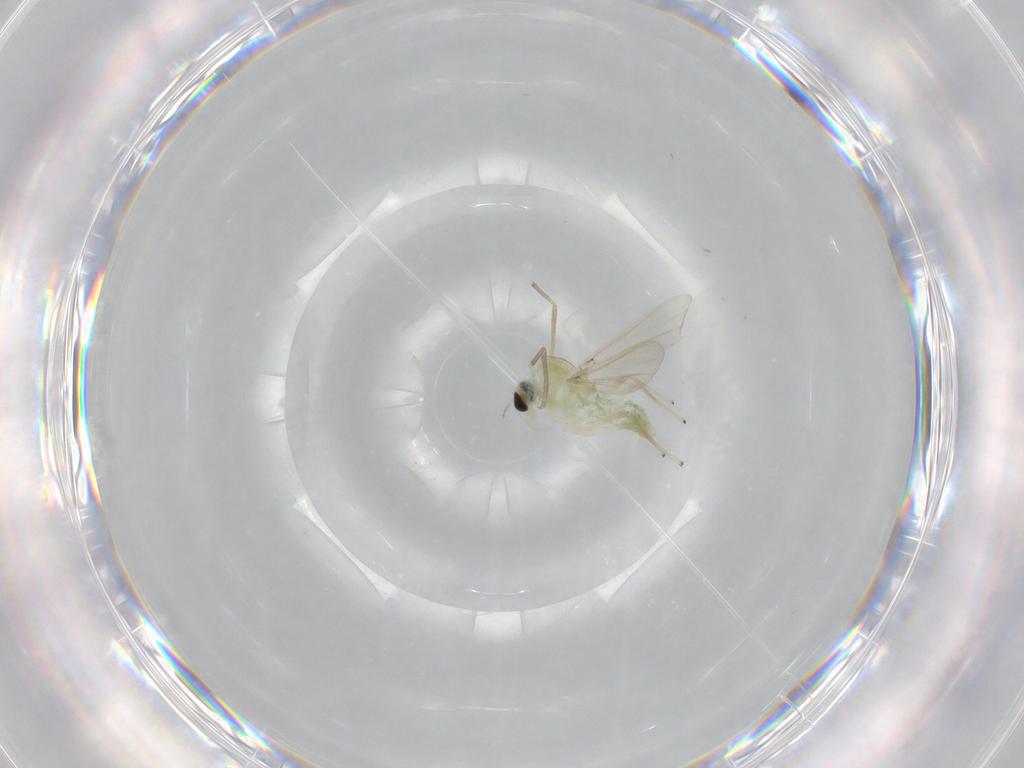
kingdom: Animalia
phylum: Arthropoda
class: Insecta
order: Diptera
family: Cecidomyiidae
